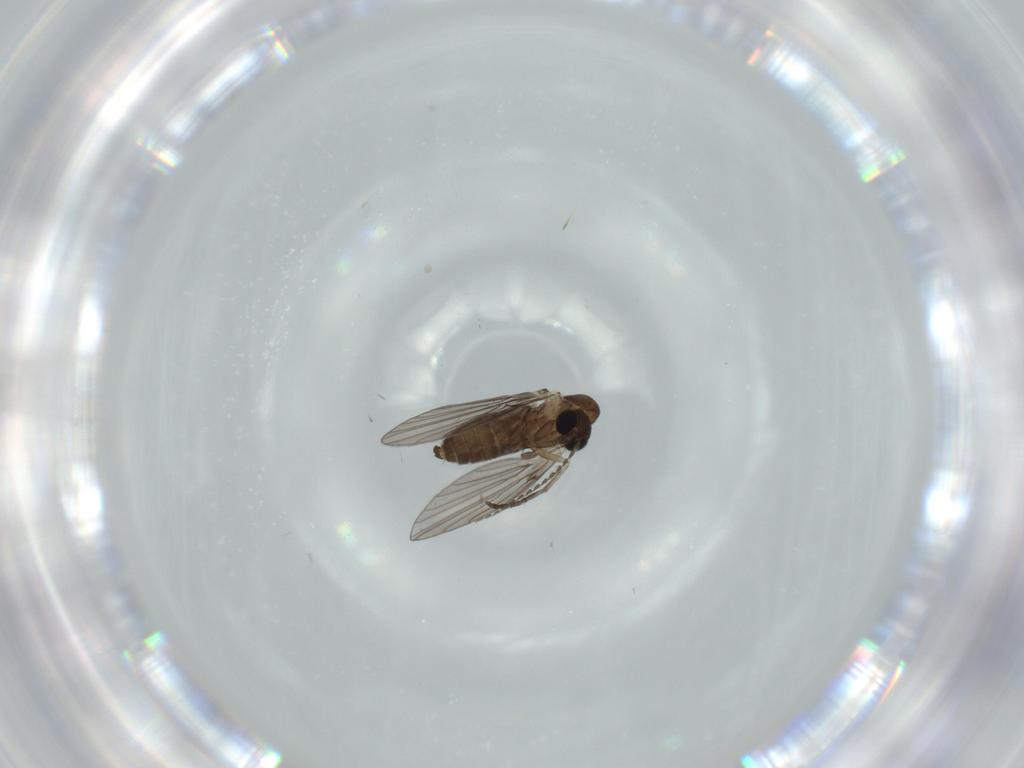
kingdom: Animalia
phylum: Arthropoda
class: Insecta
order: Diptera
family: Psychodidae
